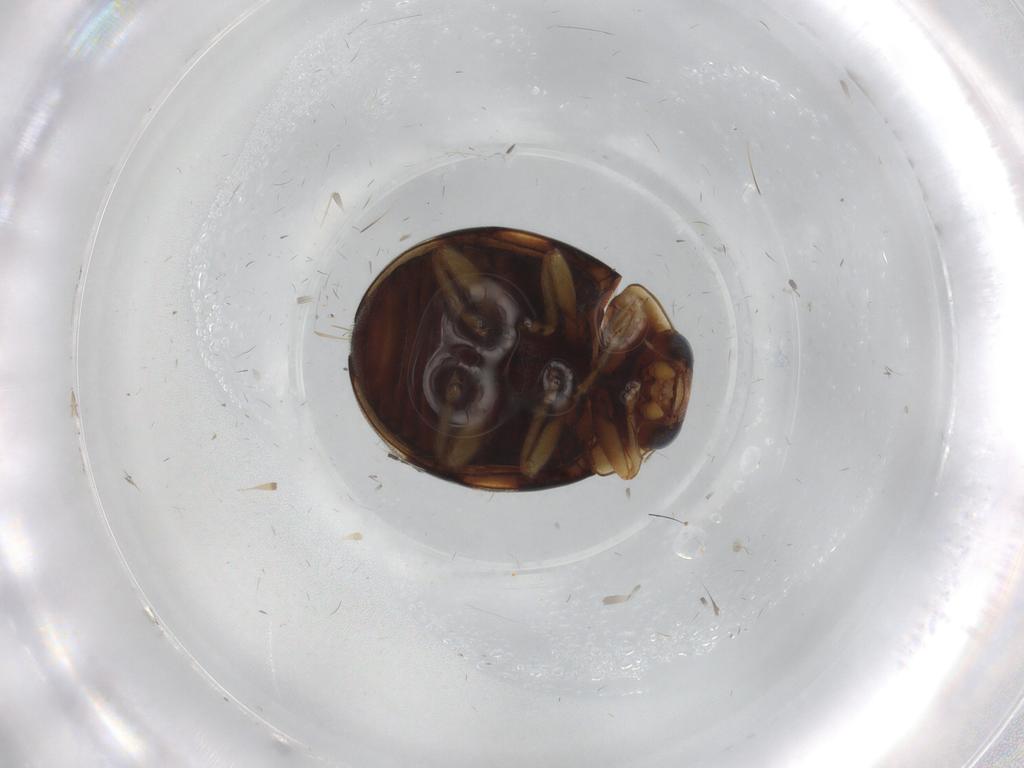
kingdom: Animalia
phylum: Arthropoda
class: Insecta
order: Coleoptera
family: Coccinellidae
